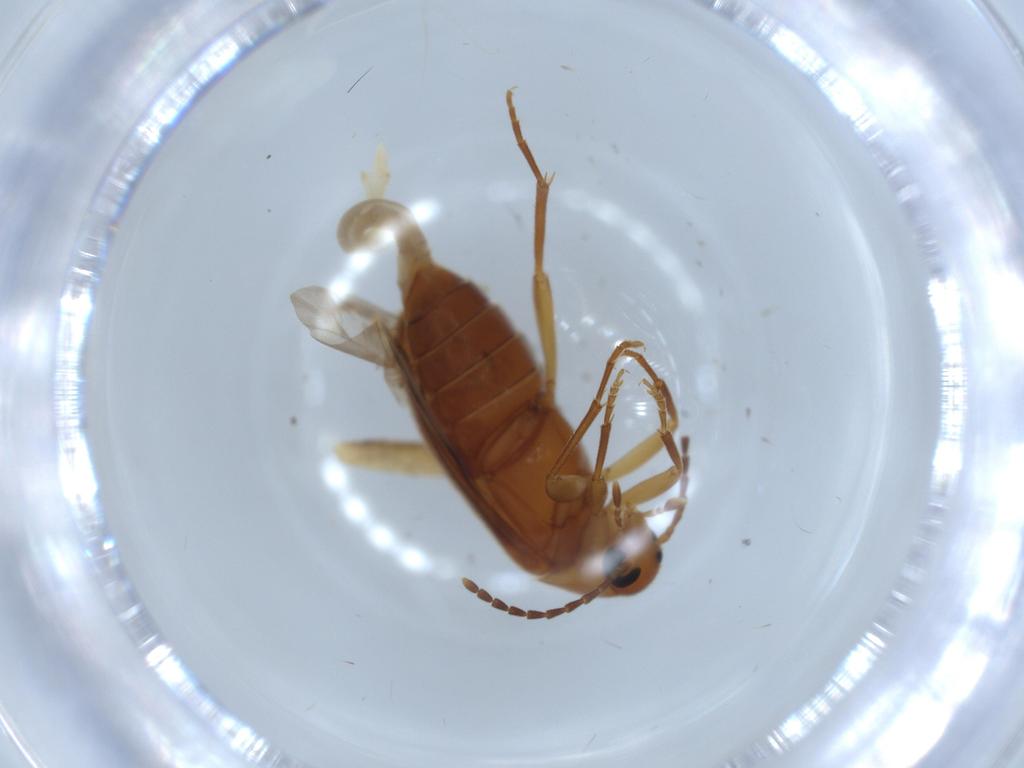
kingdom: Animalia
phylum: Arthropoda
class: Insecta
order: Coleoptera
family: Scraptiidae
